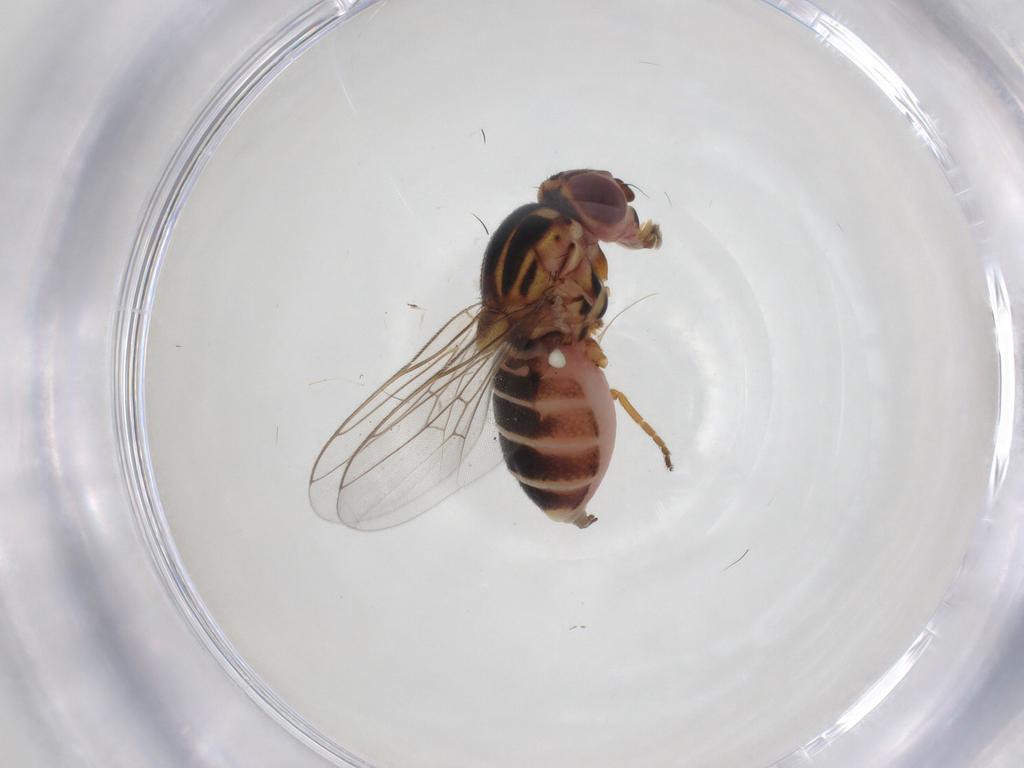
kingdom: Animalia
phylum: Arthropoda
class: Insecta
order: Diptera
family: Chloropidae
